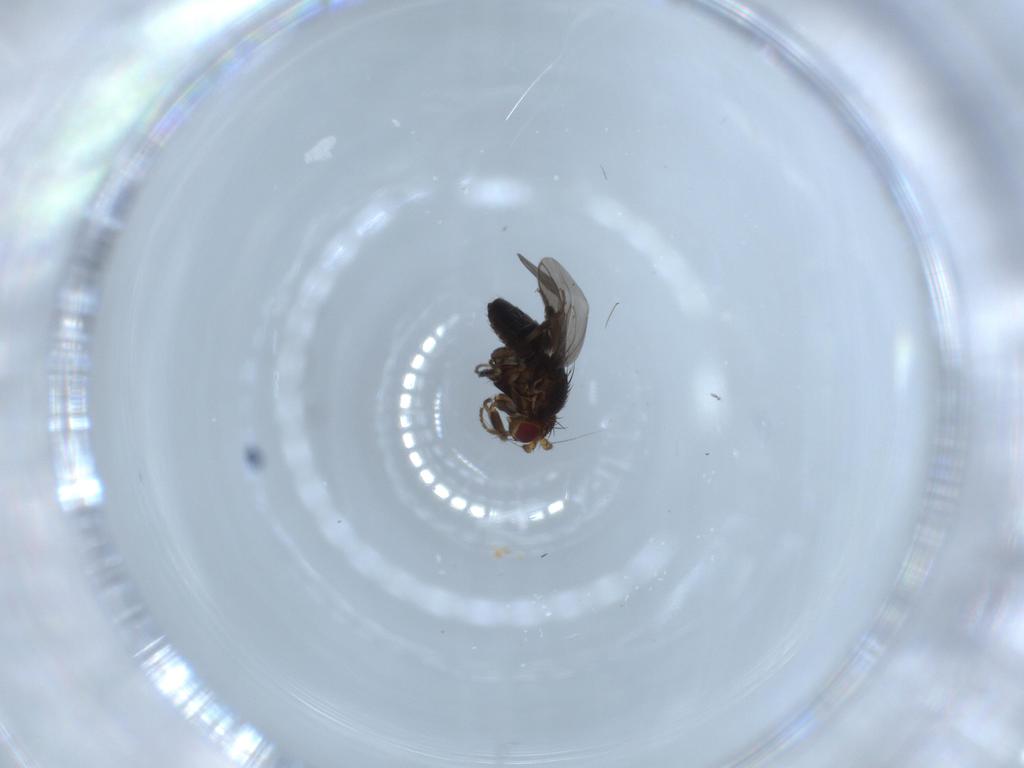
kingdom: Animalia
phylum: Arthropoda
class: Insecta
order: Diptera
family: Sphaeroceridae
